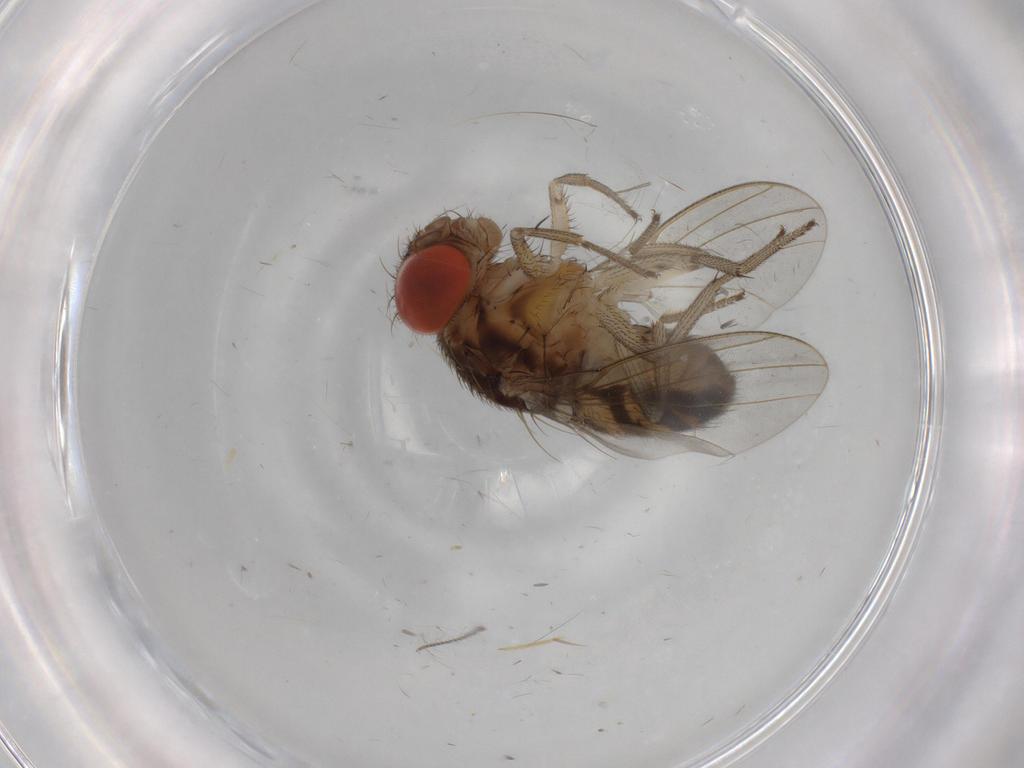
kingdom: Animalia
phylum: Arthropoda
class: Insecta
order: Diptera
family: Drosophilidae
